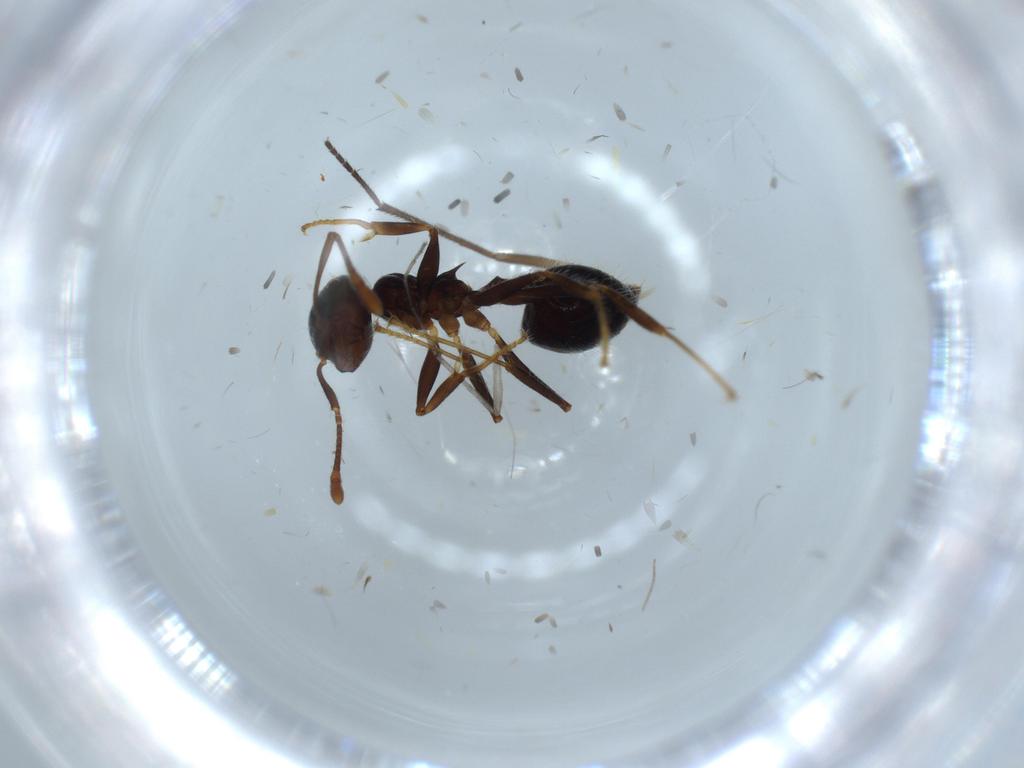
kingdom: Animalia
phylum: Arthropoda
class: Insecta
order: Hymenoptera
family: Formicidae
